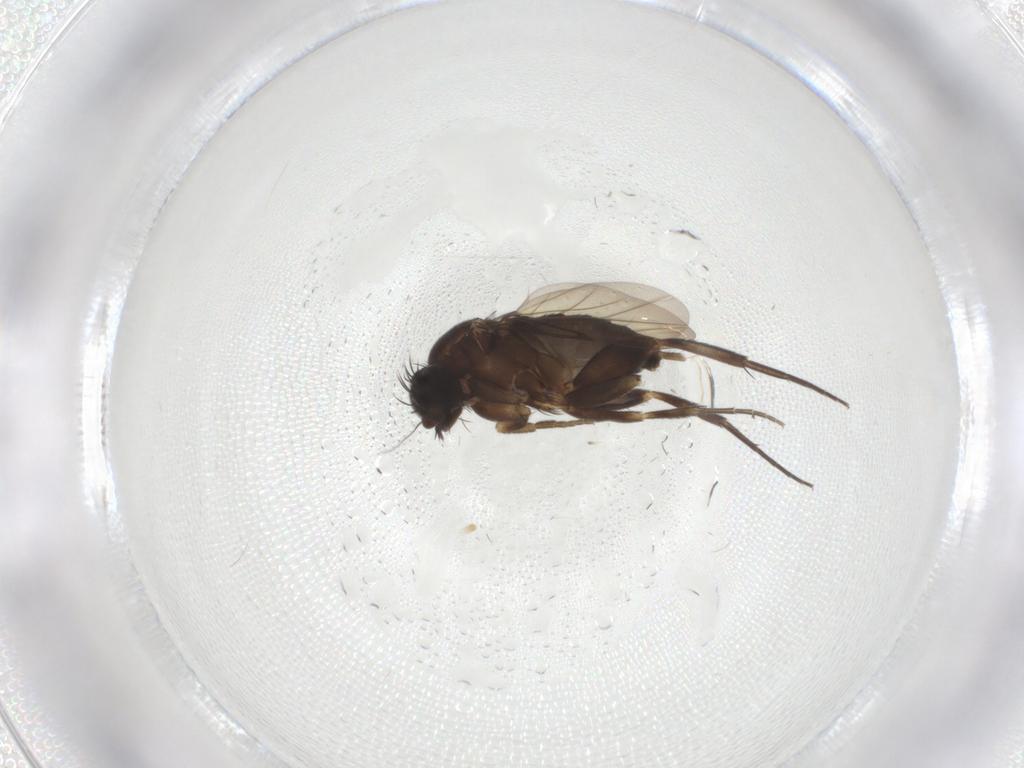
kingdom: Animalia
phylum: Arthropoda
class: Insecta
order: Diptera
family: Phoridae
